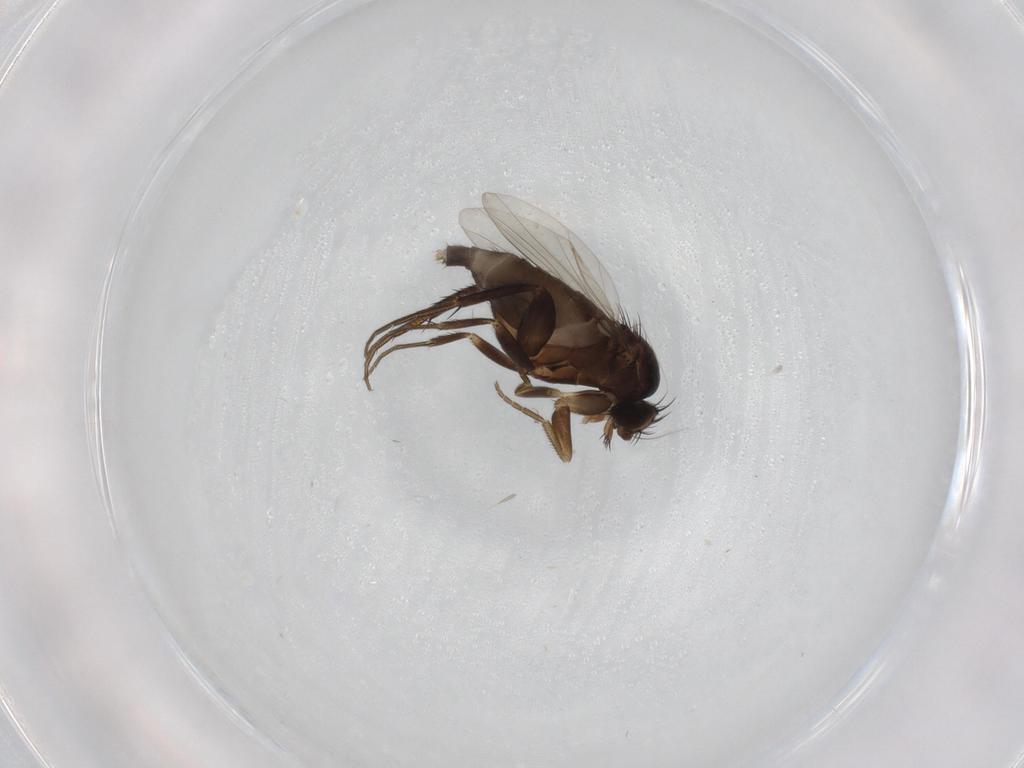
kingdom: Animalia
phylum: Arthropoda
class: Insecta
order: Diptera
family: Phoridae
